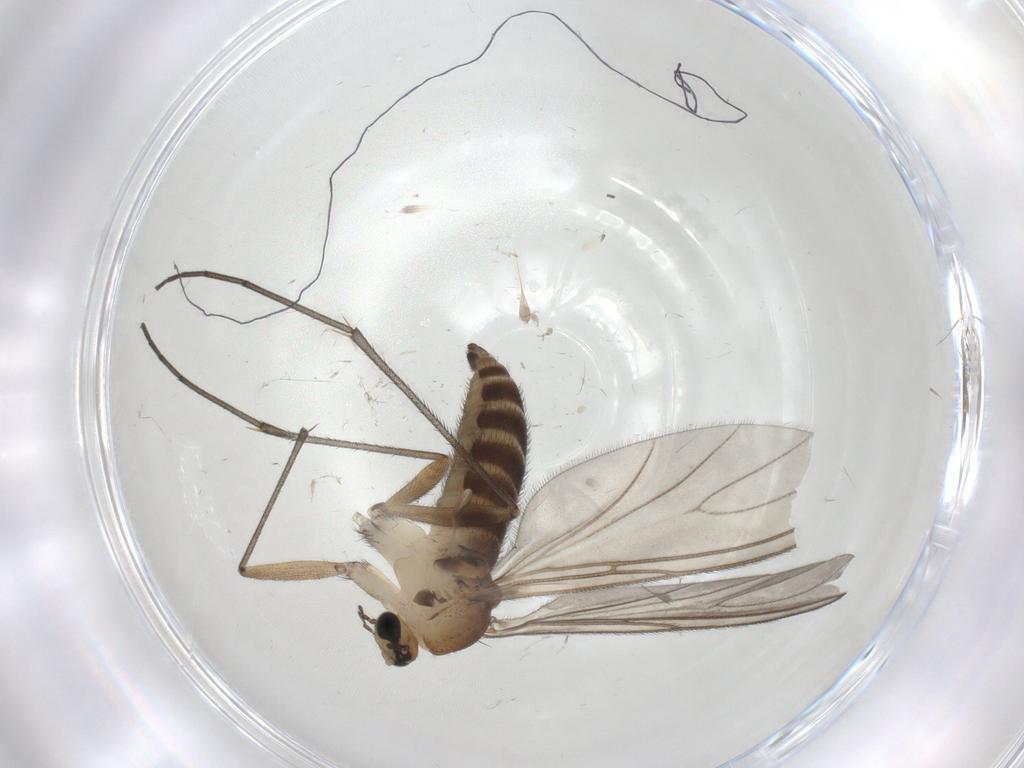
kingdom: Animalia
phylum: Arthropoda
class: Insecta
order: Diptera
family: Sciaridae
